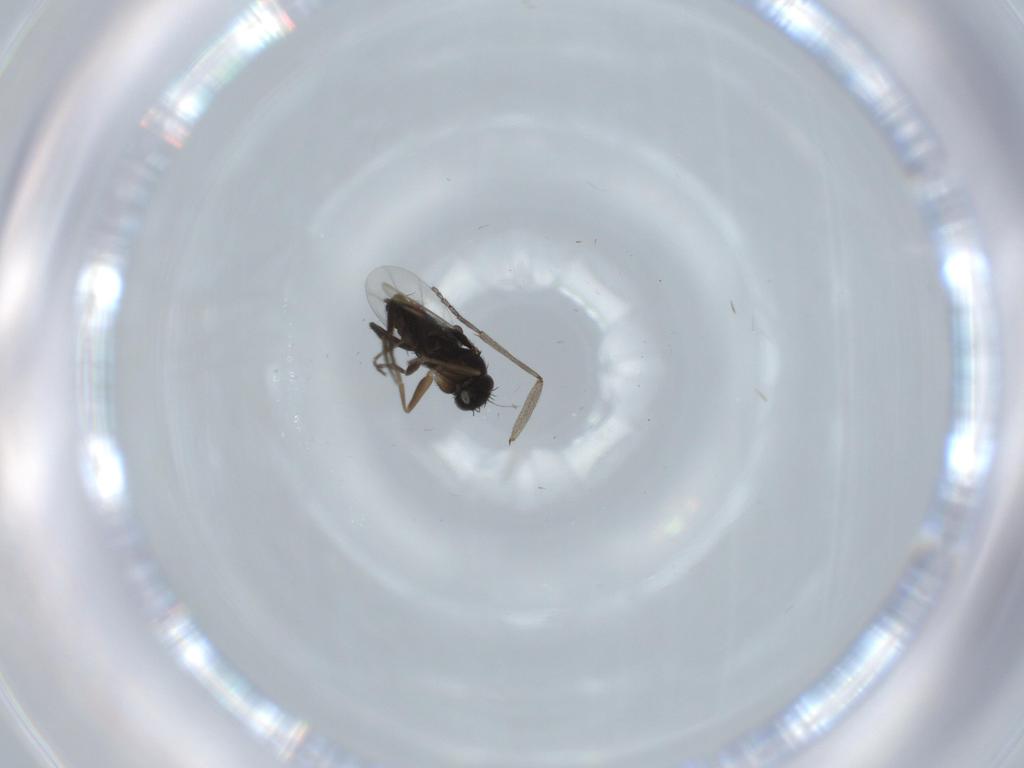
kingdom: Animalia
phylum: Arthropoda
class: Insecta
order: Diptera
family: Phoridae
